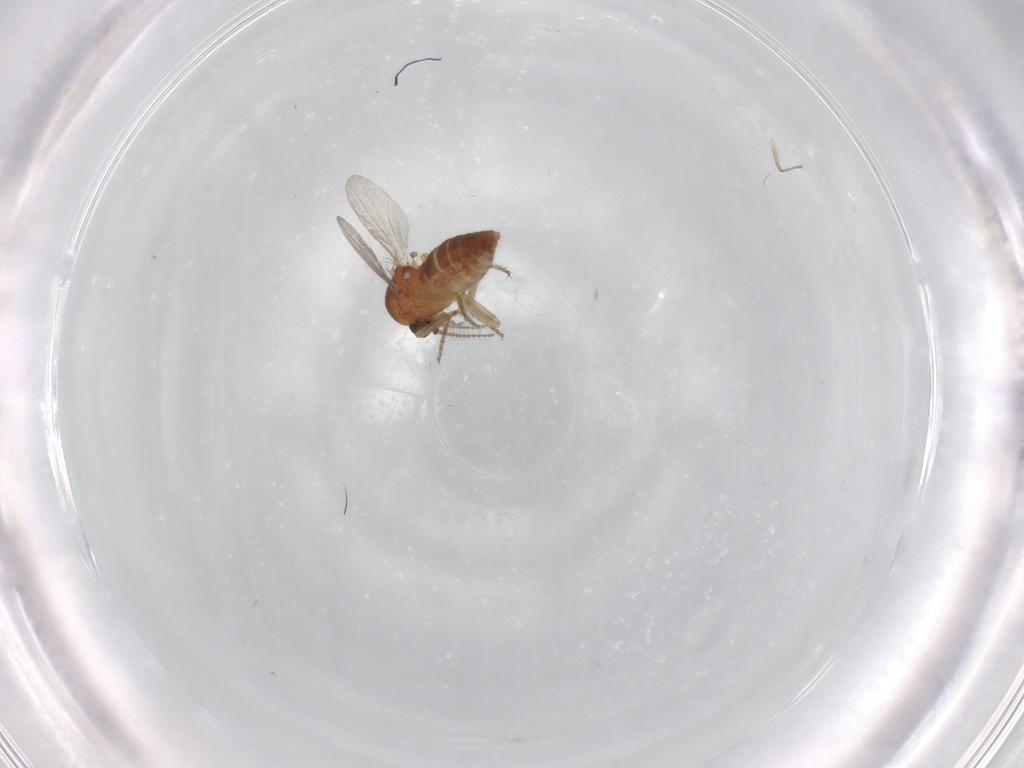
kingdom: Animalia
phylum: Arthropoda
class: Insecta
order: Diptera
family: Ceratopogonidae
